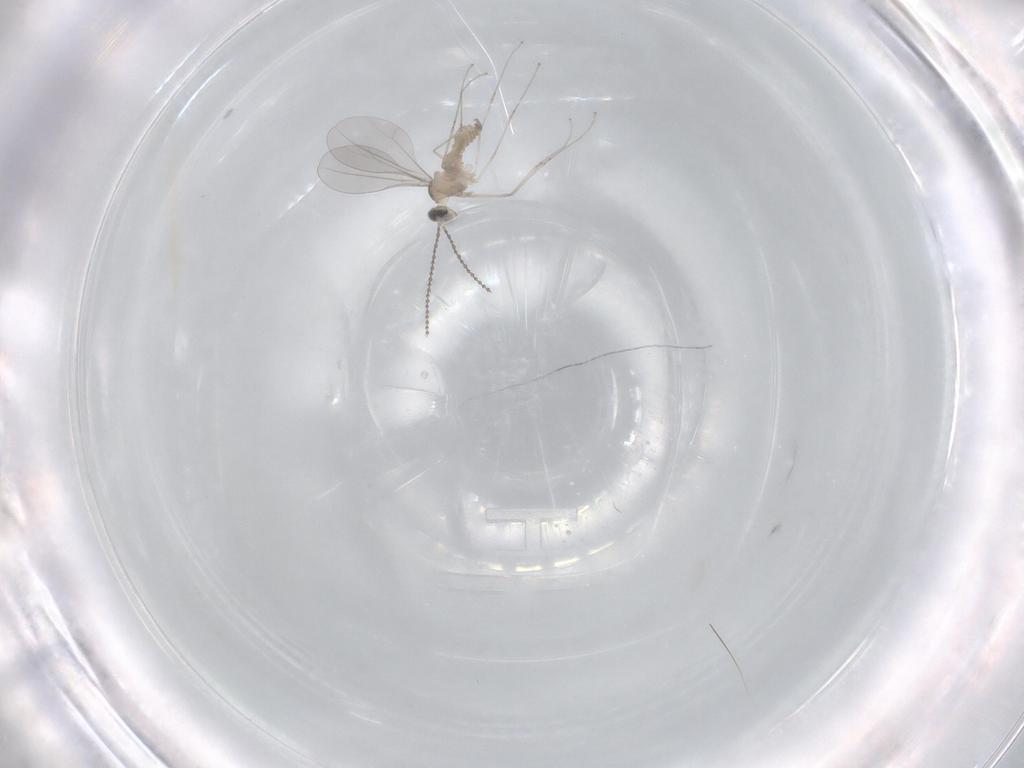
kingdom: Animalia
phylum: Arthropoda
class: Insecta
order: Diptera
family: Cecidomyiidae
